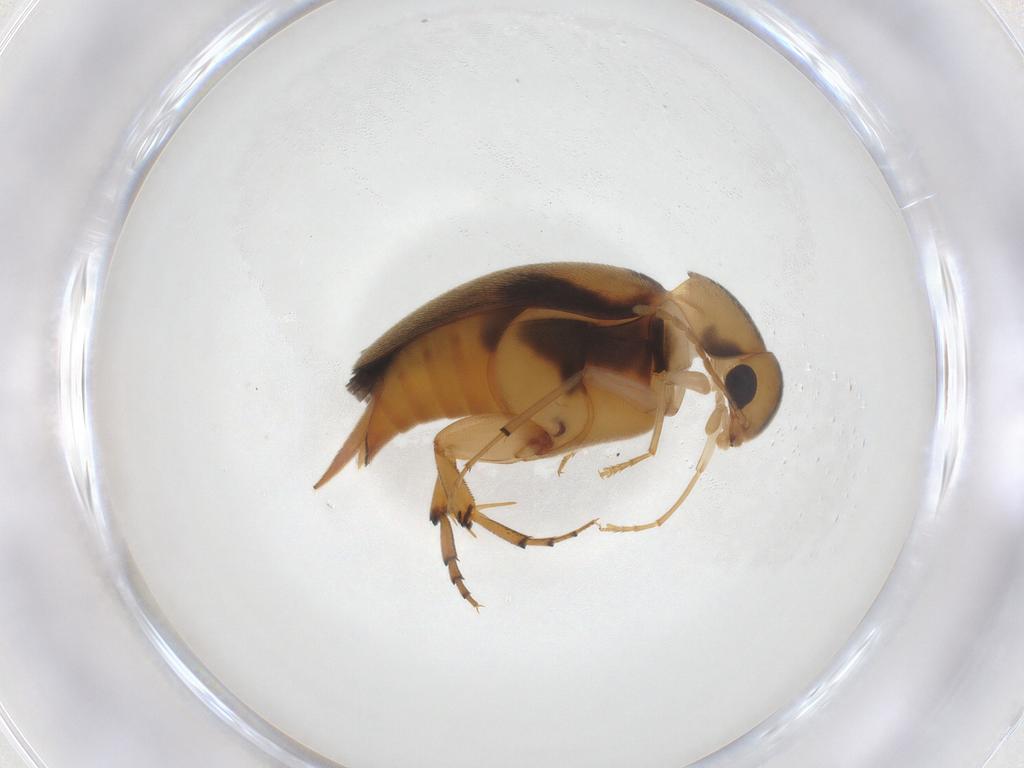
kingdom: Animalia
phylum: Arthropoda
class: Insecta
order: Coleoptera
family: Mordellidae
